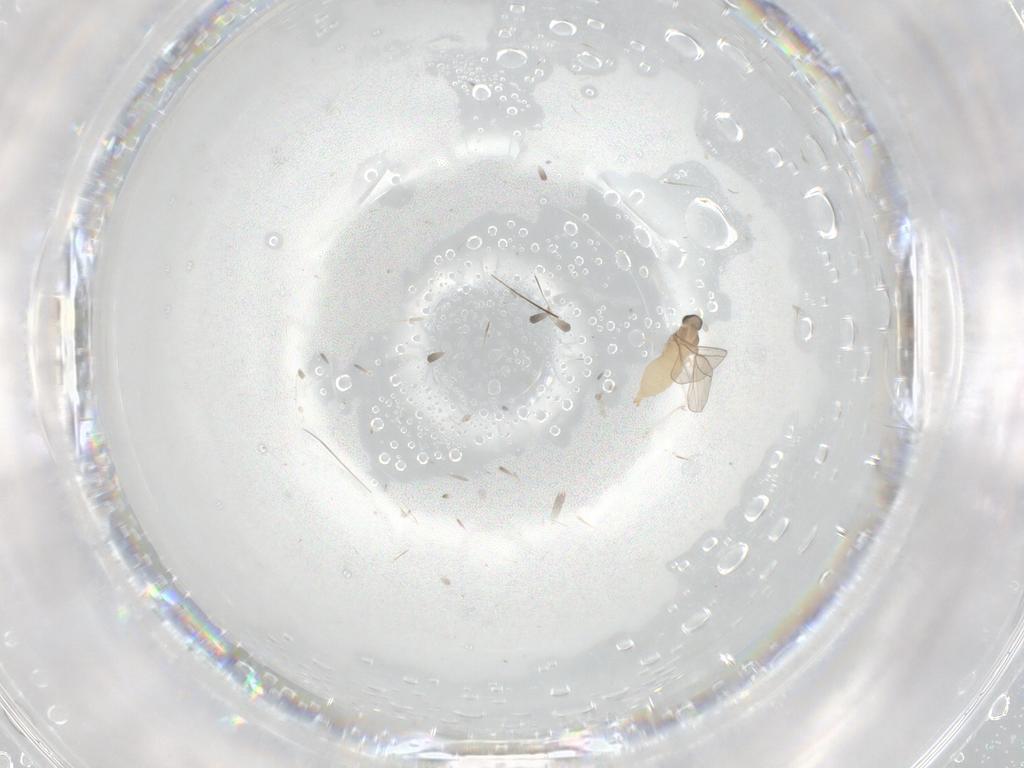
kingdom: Animalia
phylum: Arthropoda
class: Insecta
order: Diptera
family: Cecidomyiidae
